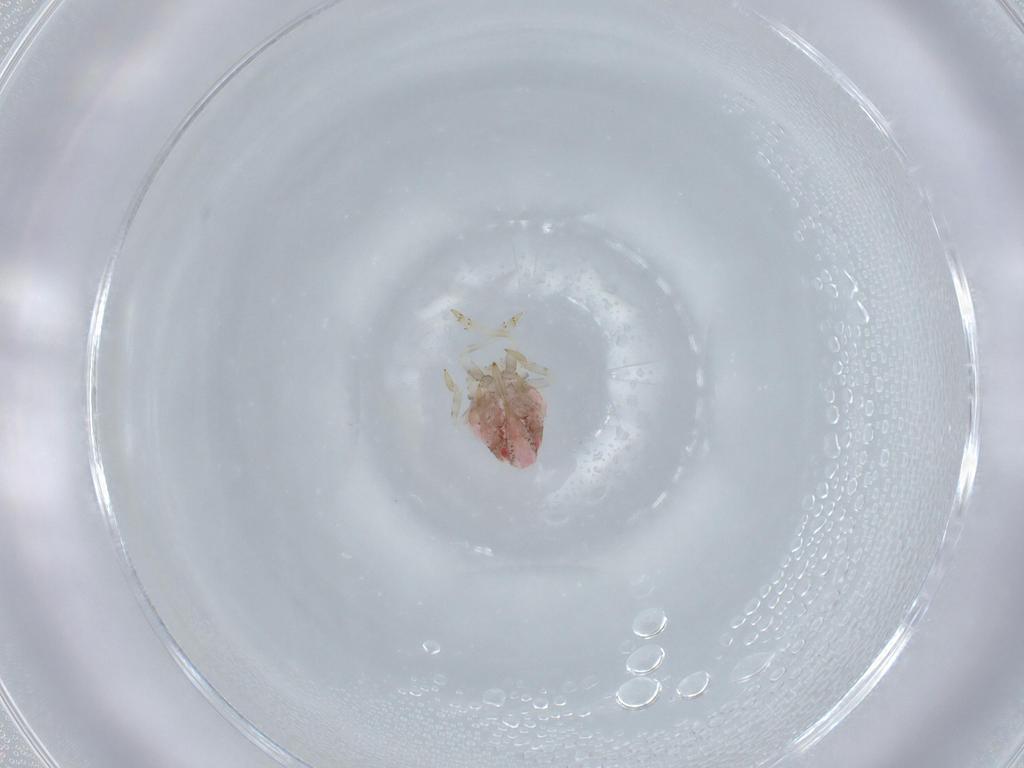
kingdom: Animalia
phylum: Arthropoda
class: Insecta
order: Hemiptera
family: Acanaloniidae
